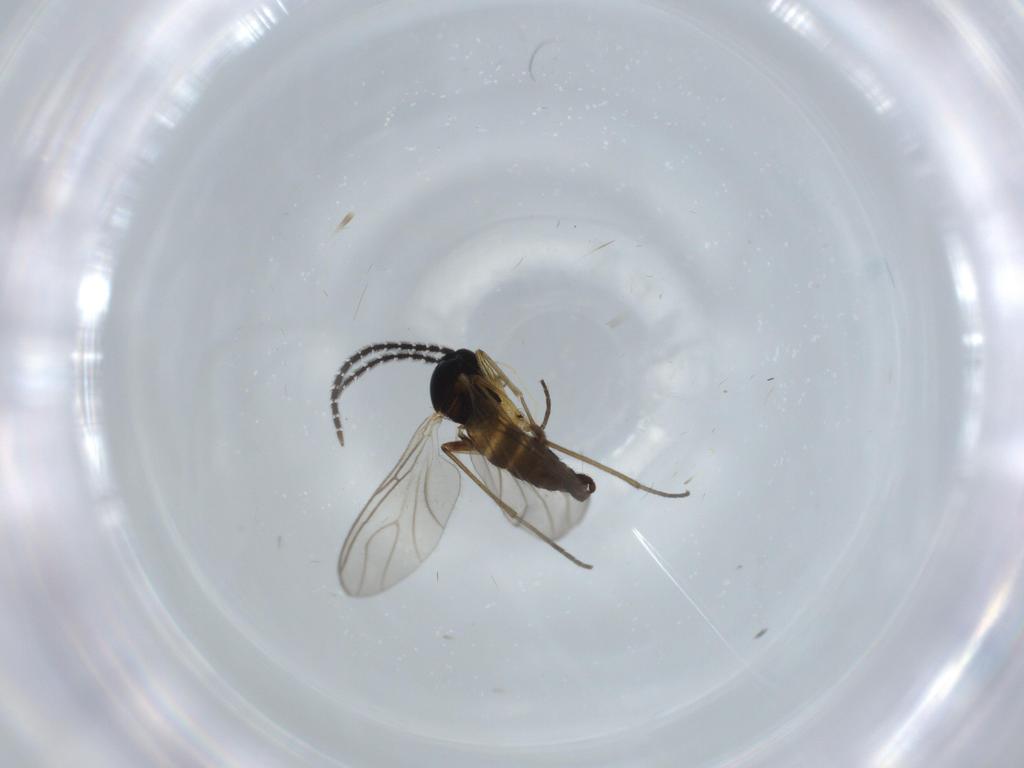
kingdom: Animalia
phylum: Arthropoda
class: Insecta
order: Diptera
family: Sciaridae
